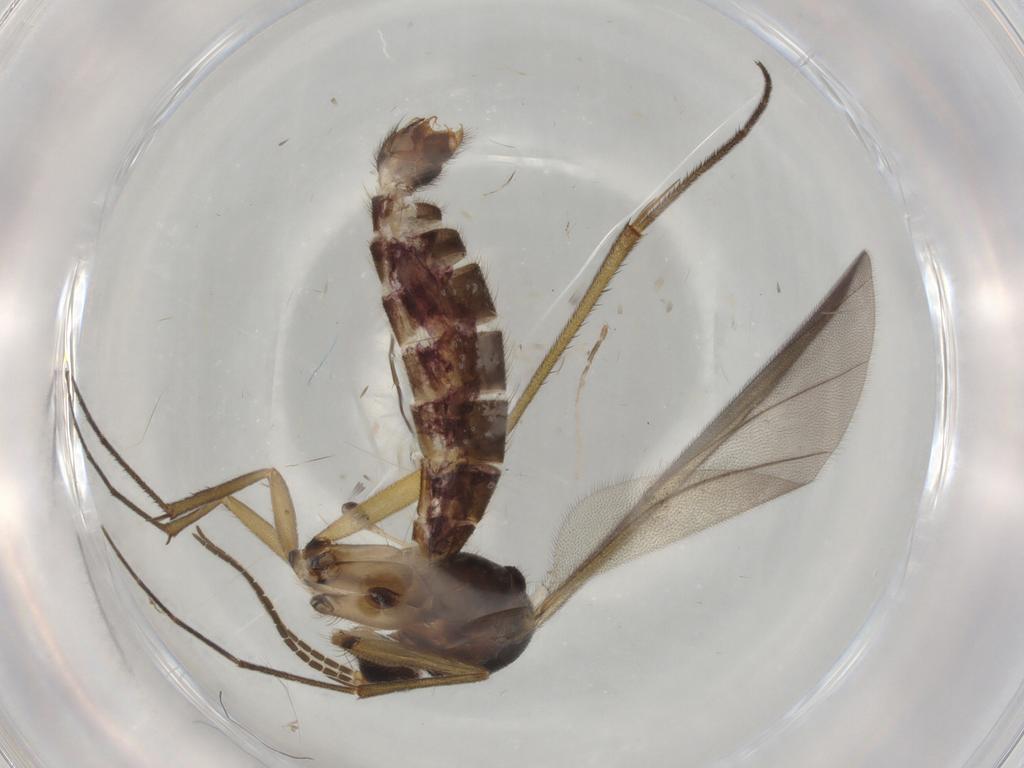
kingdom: Animalia
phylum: Arthropoda
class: Insecta
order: Diptera
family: Mycetophilidae
